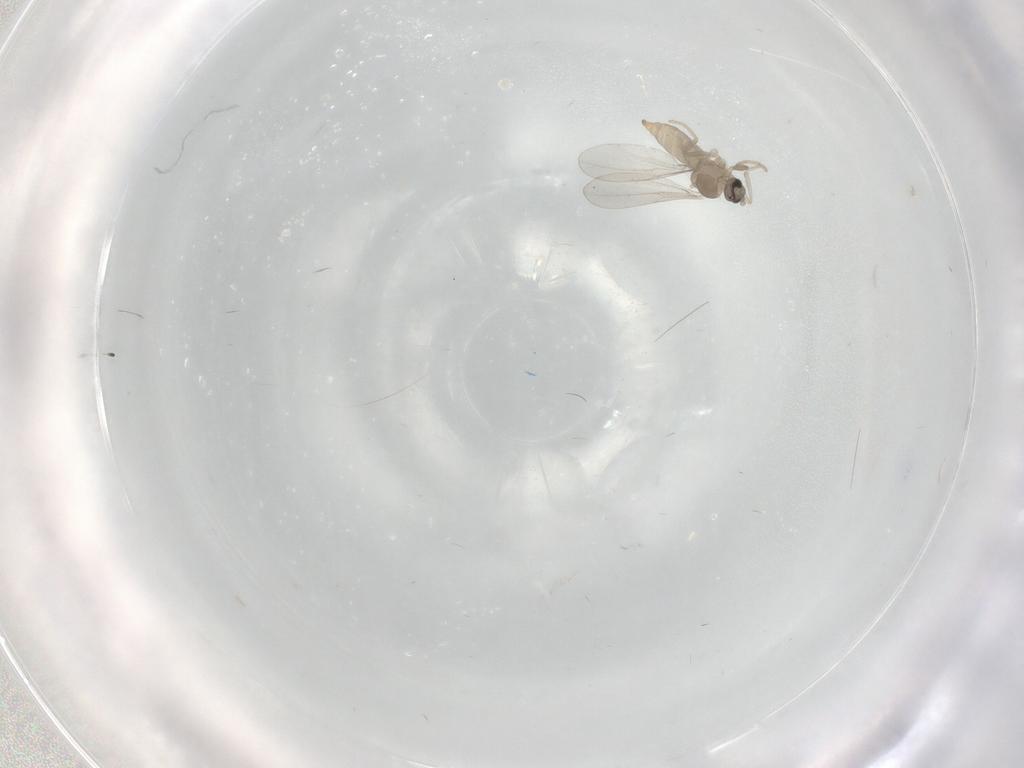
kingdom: Animalia
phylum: Arthropoda
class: Insecta
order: Diptera
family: Cecidomyiidae
